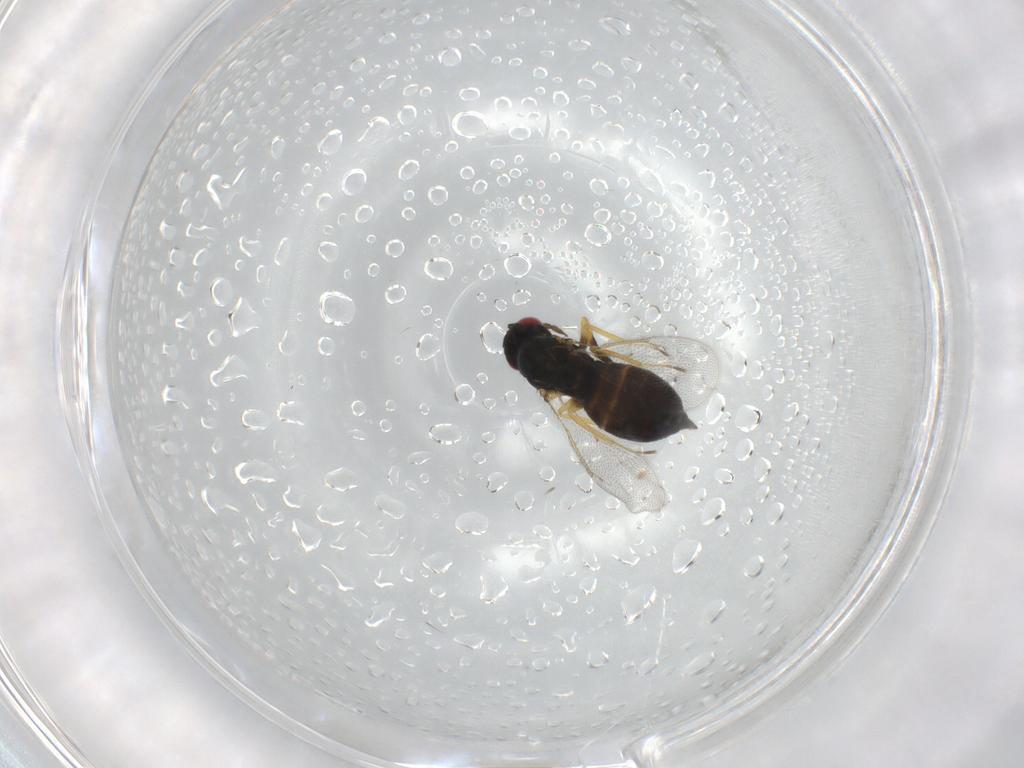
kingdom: Animalia
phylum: Arthropoda
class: Insecta
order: Hymenoptera
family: Eulophidae
